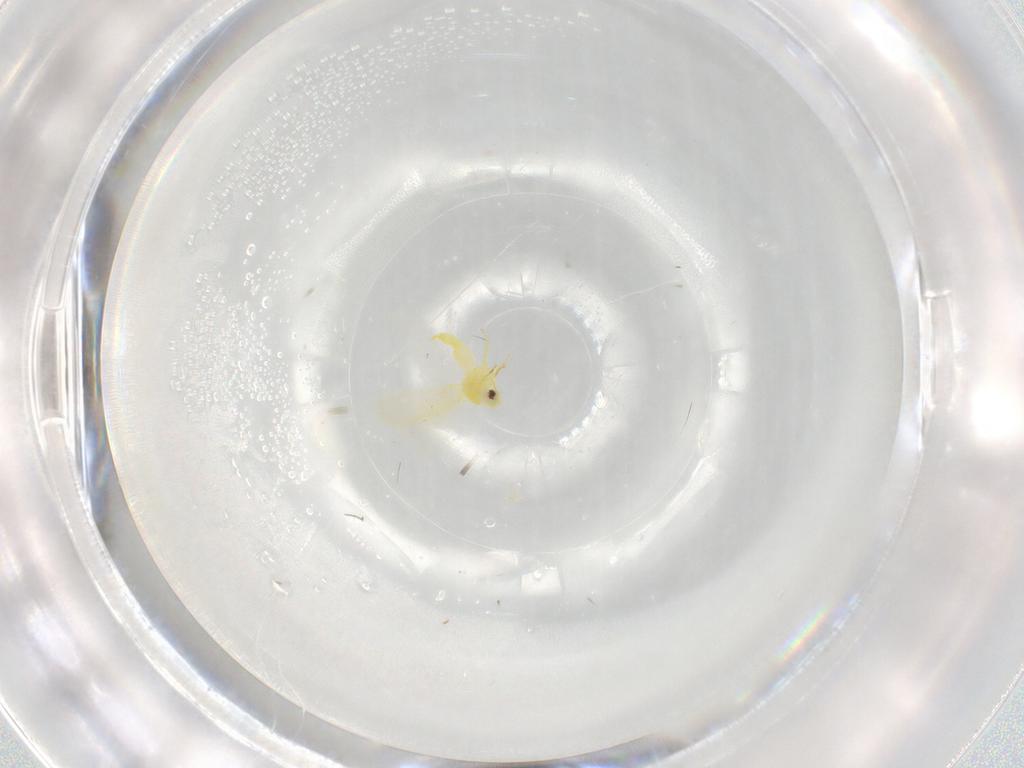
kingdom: Animalia
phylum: Arthropoda
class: Insecta
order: Hemiptera
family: Aleyrodidae
